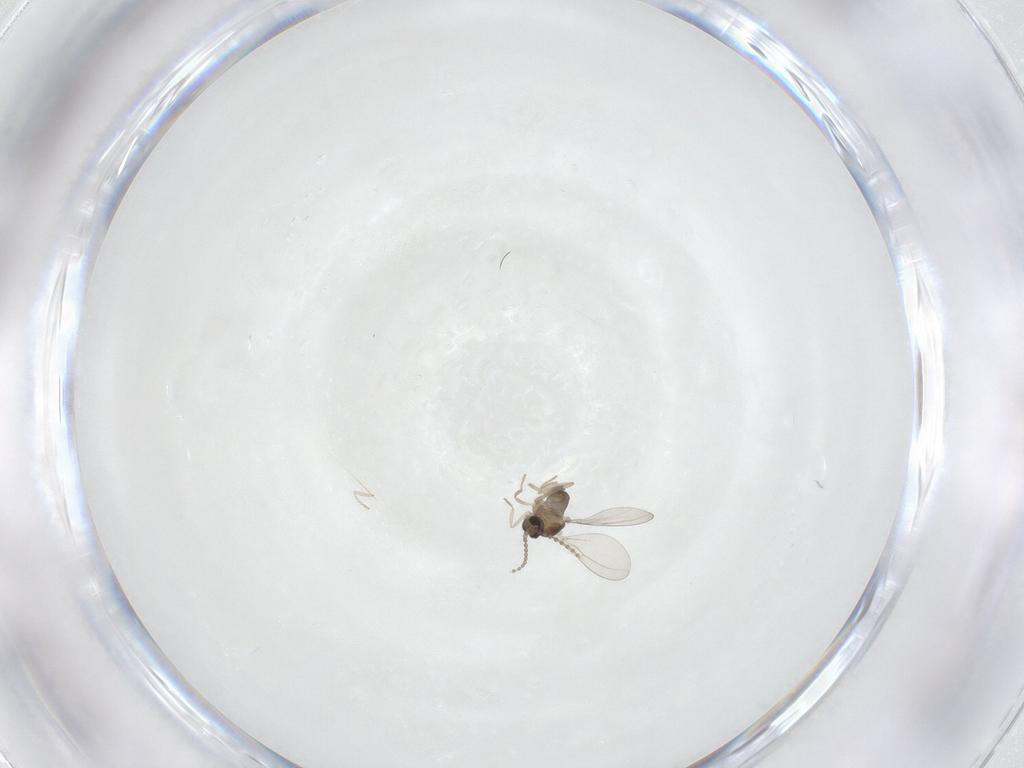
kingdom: Animalia
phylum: Arthropoda
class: Insecta
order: Diptera
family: Cecidomyiidae
